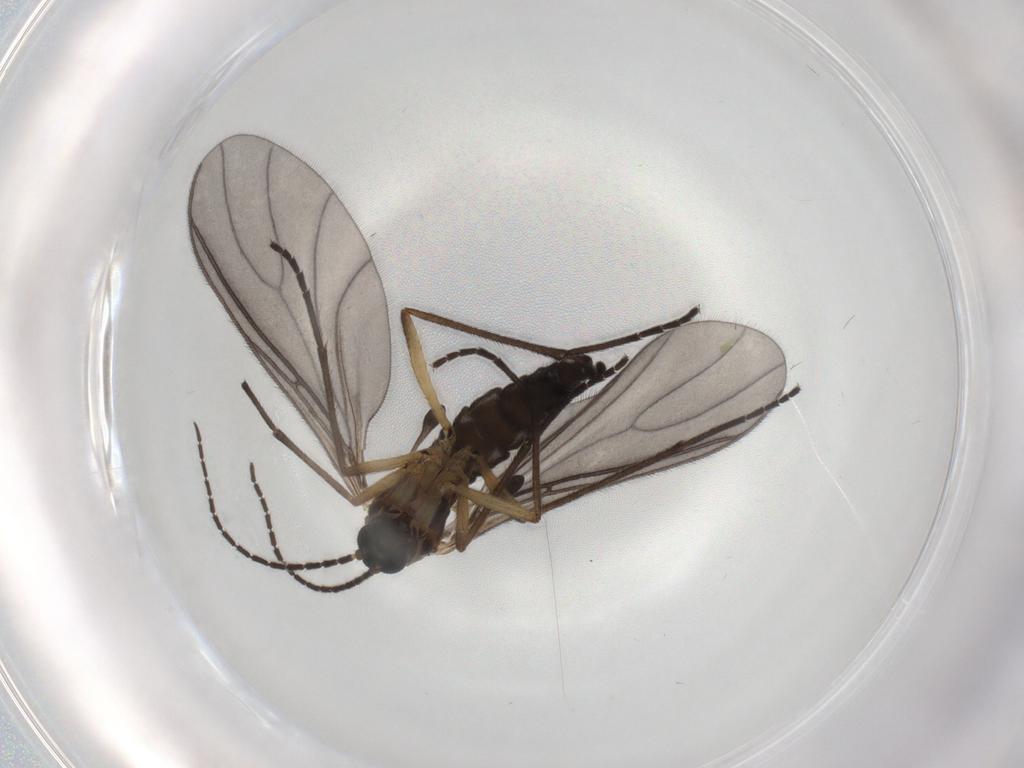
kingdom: Animalia
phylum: Arthropoda
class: Insecta
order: Diptera
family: Sciaridae
